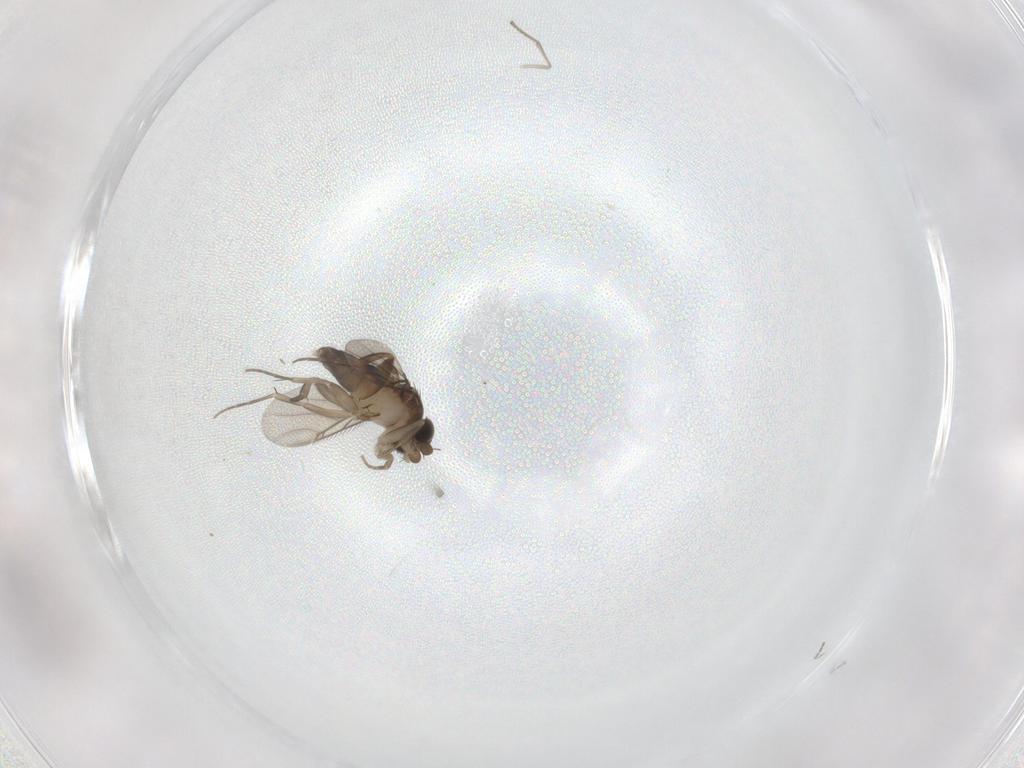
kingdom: Animalia
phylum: Arthropoda
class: Insecta
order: Diptera
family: Psychodidae
